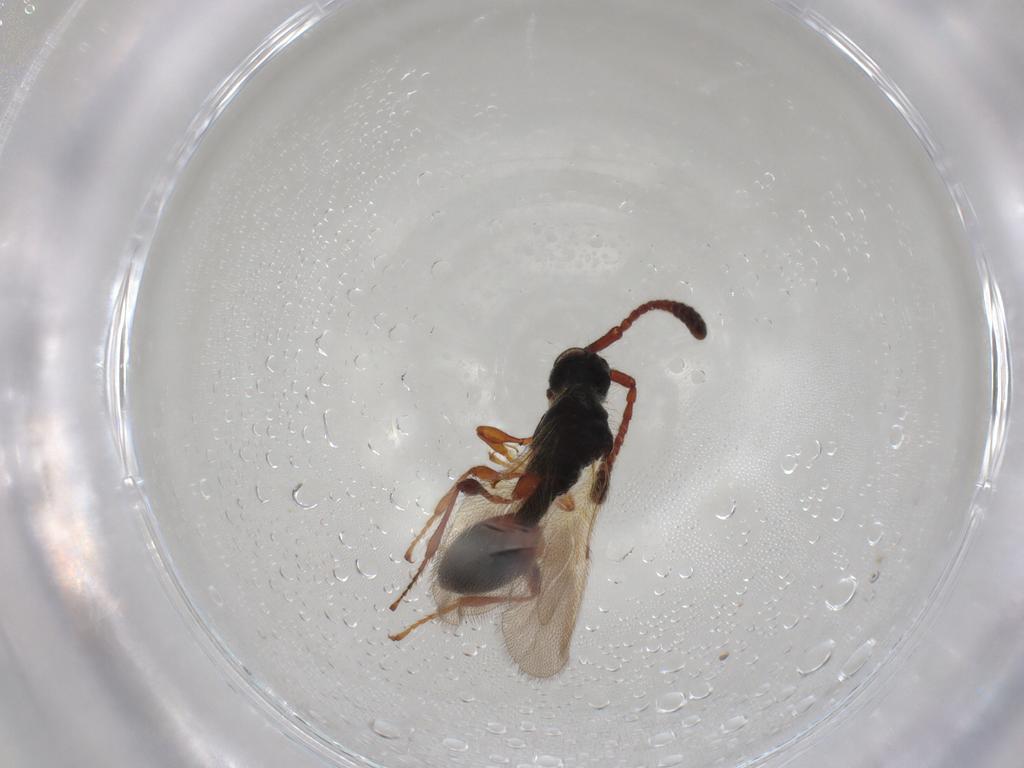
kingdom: Animalia
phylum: Arthropoda
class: Insecta
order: Hymenoptera
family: Diapriidae
